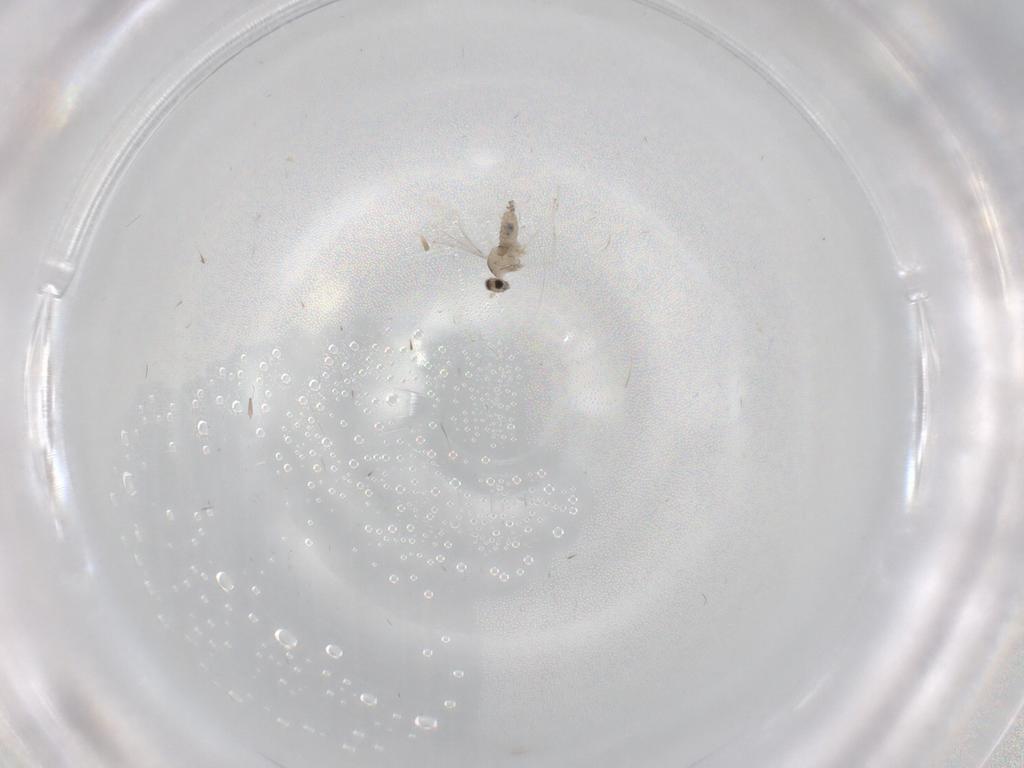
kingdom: Animalia
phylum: Arthropoda
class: Insecta
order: Diptera
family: Cecidomyiidae
